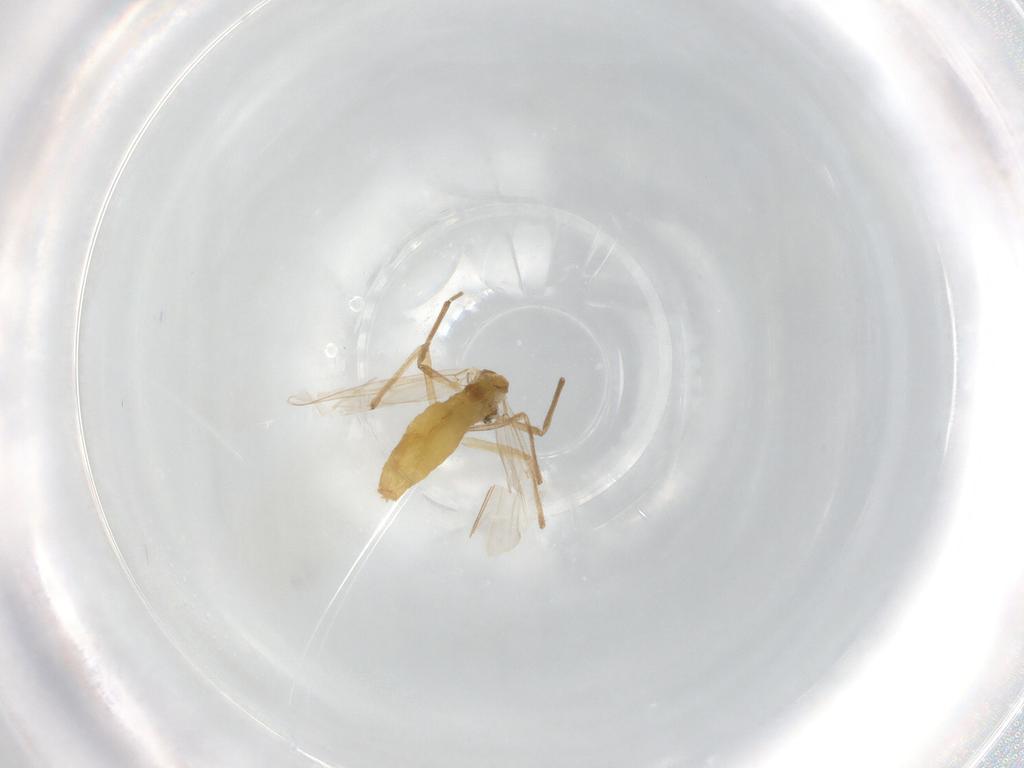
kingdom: Animalia
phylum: Arthropoda
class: Insecta
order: Diptera
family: Chironomidae
